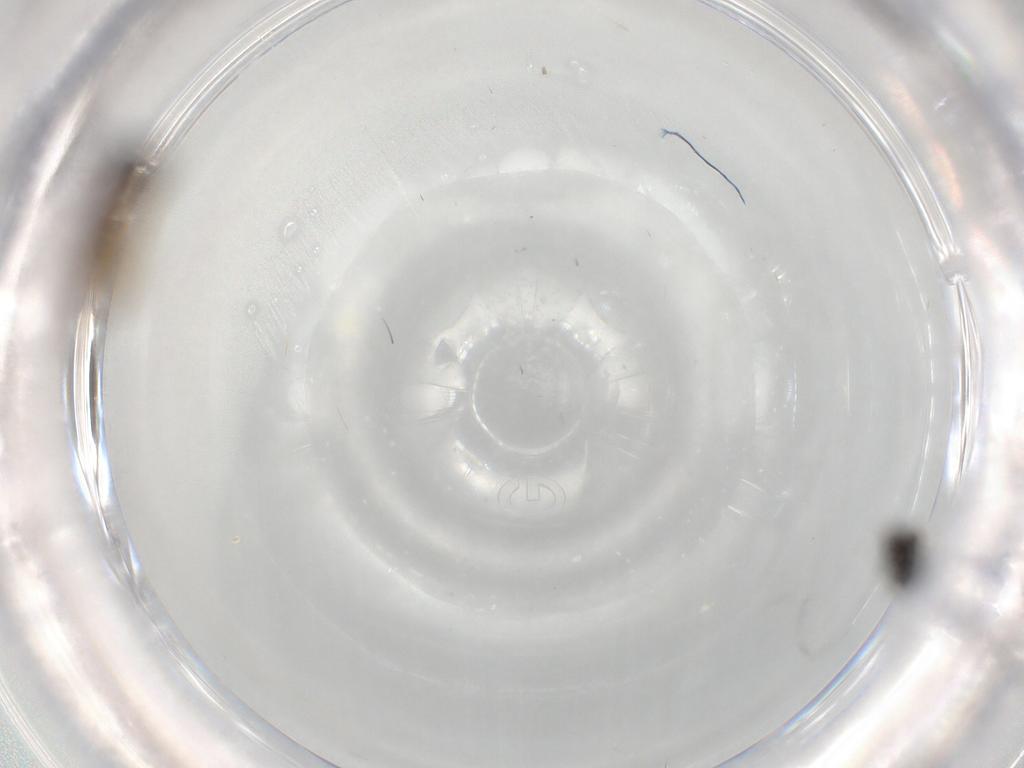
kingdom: Animalia
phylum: Arthropoda
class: Insecta
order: Diptera
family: Phoridae
